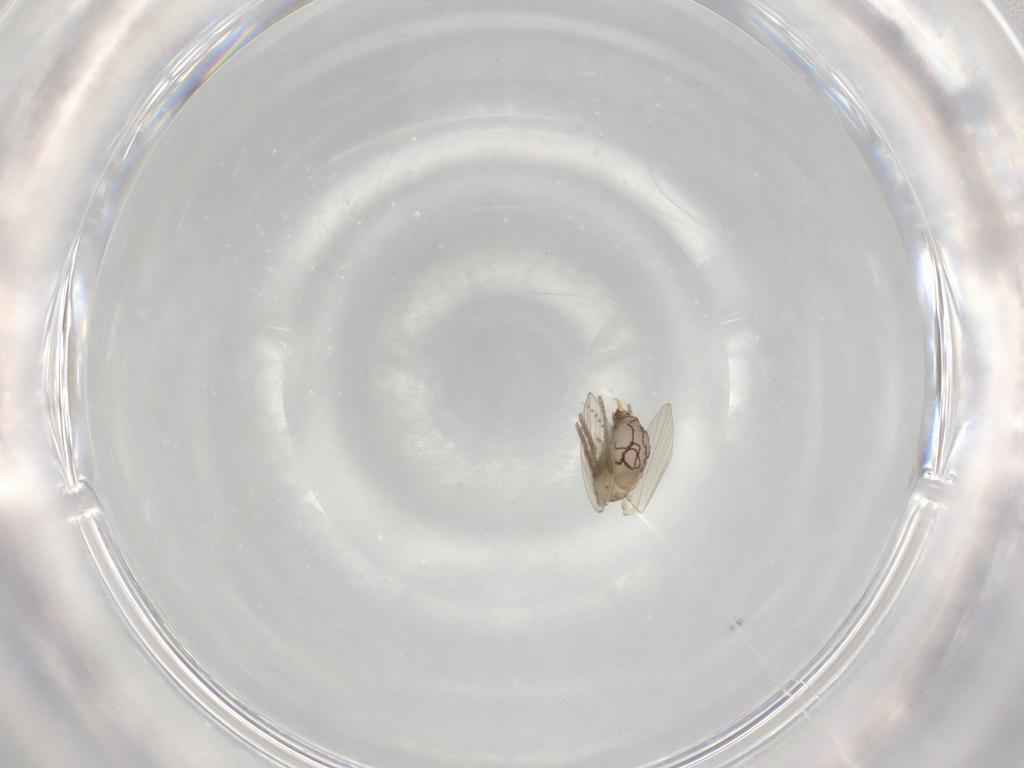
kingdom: Animalia
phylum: Arthropoda
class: Insecta
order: Diptera
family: Psychodidae
